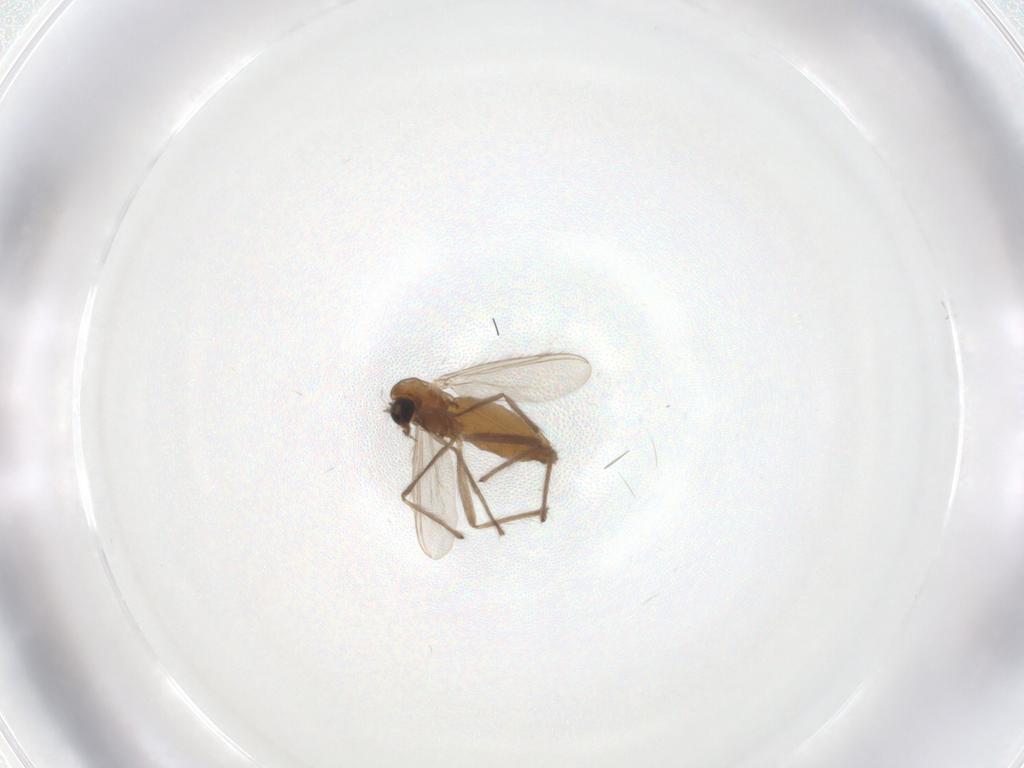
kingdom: Animalia
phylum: Arthropoda
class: Insecta
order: Diptera
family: Chironomidae
